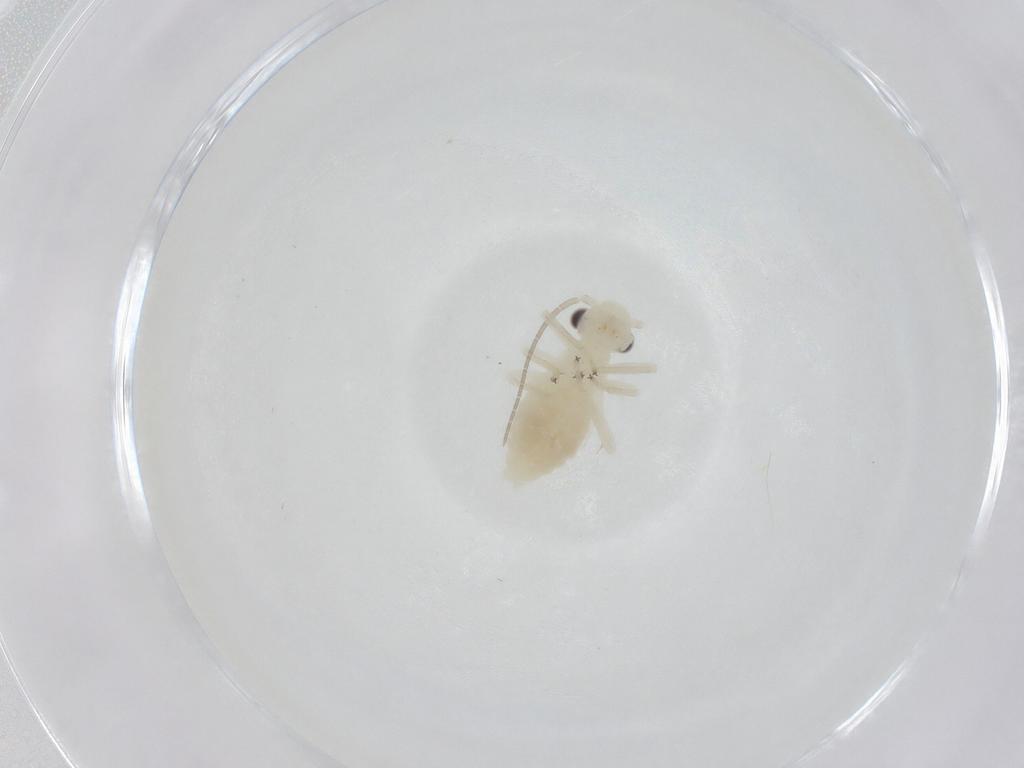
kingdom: Animalia
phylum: Arthropoda
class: Insecta
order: Psocodea
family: Caeciliusidae
